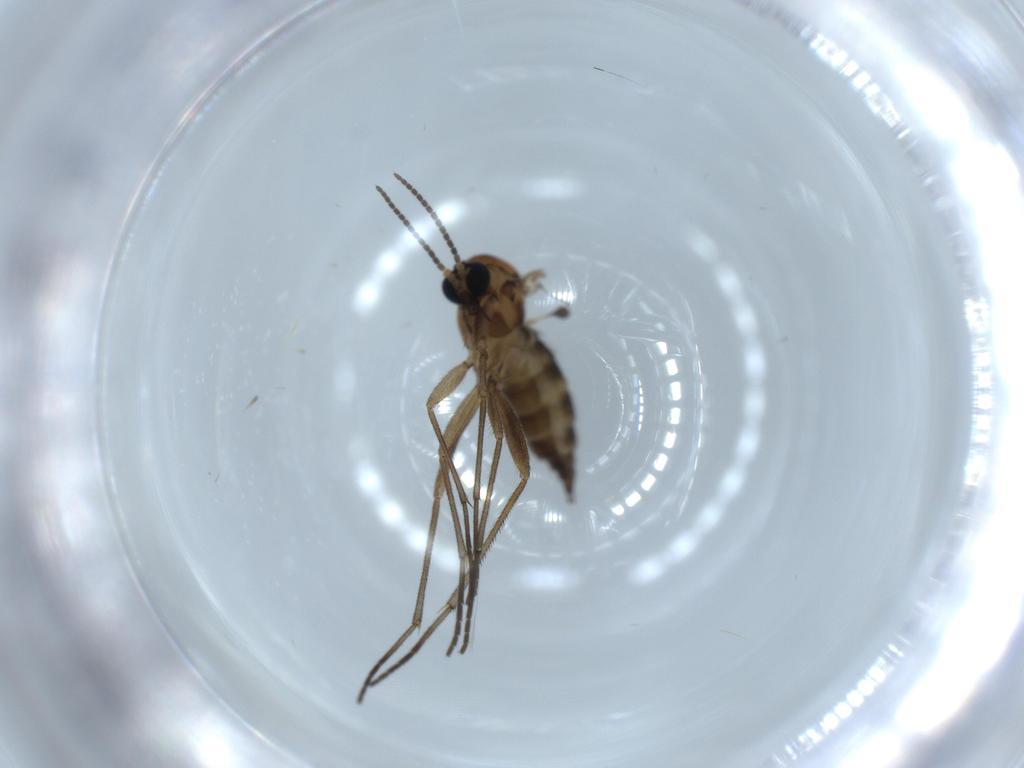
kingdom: Animalia
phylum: Arthropoda
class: Insecta
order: Diptera
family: Sciaridae
